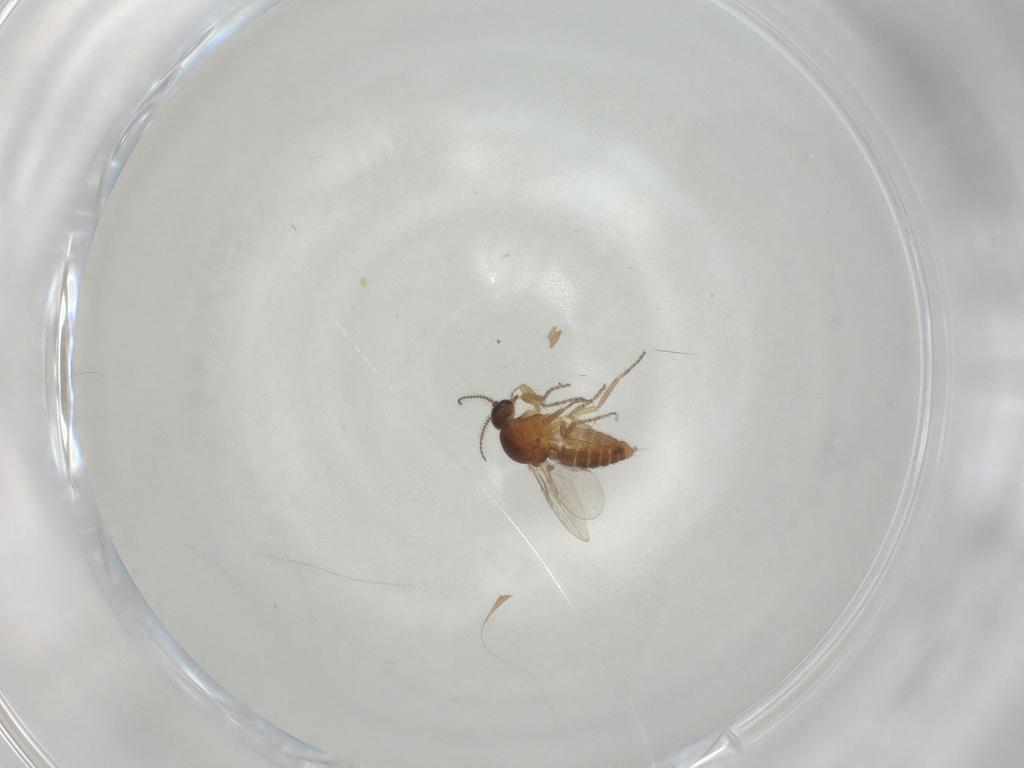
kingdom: Animalia
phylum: Arthropoda
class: Insecta
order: Diptera
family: Ceratopogonidae
